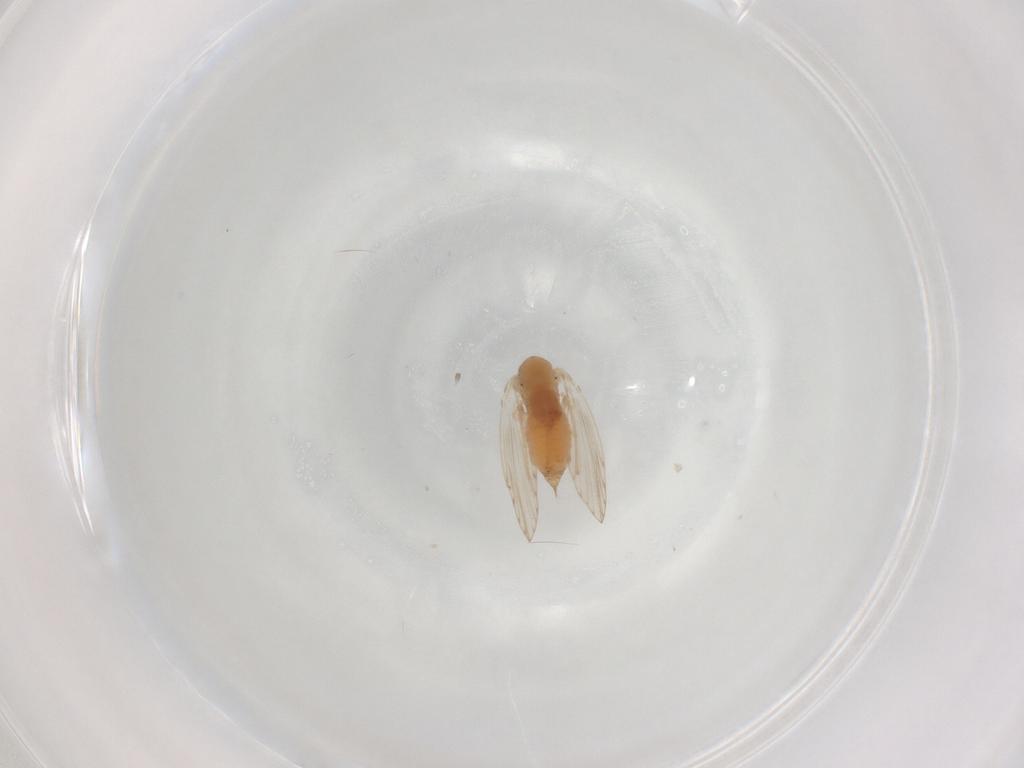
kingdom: Animalia
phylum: Arthropoda
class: Insecta
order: Diptera
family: Psychodidae
